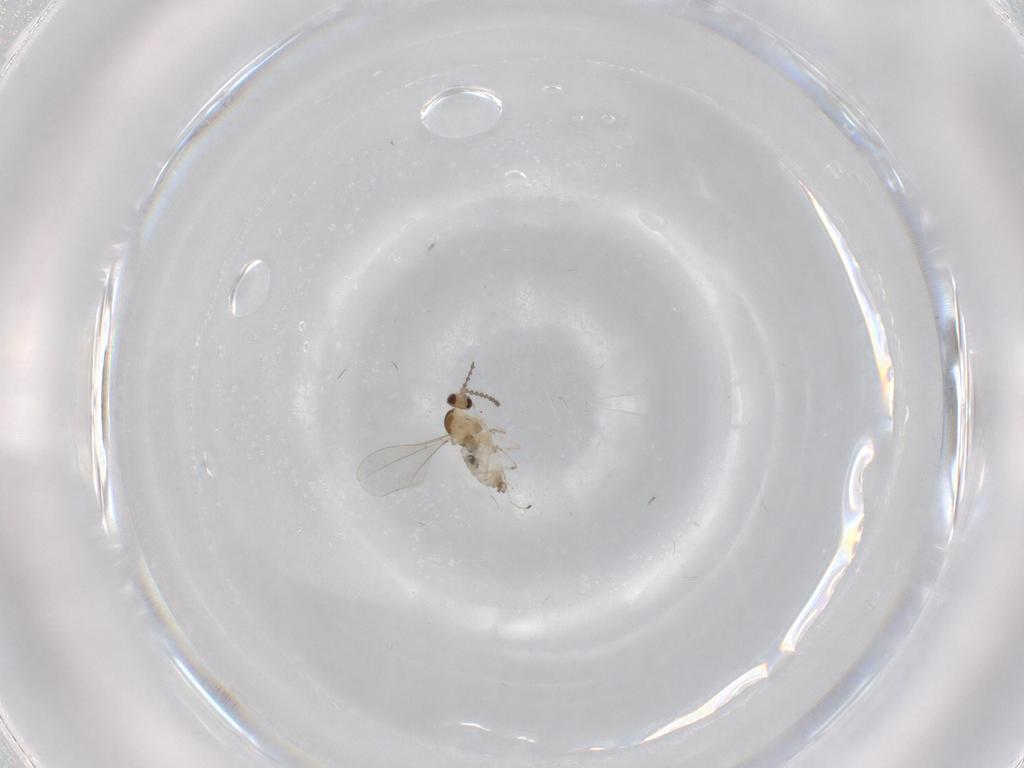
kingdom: Animalia
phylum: Arthropoda
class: Insecta
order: Diptera
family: Cecidomyiidae
